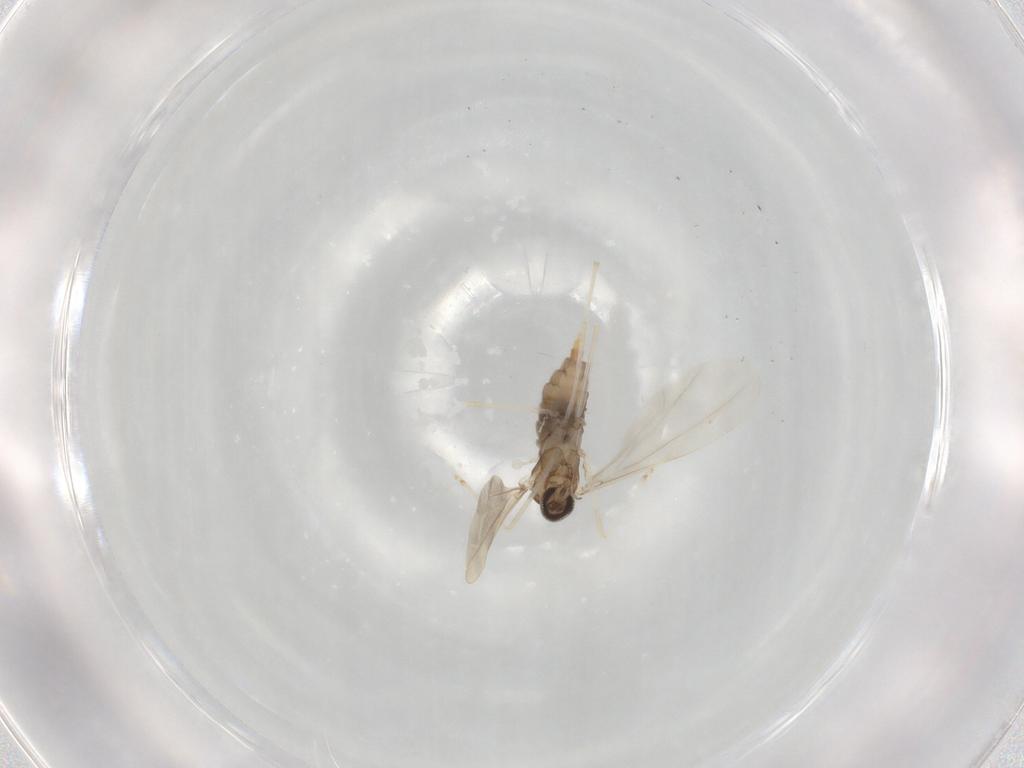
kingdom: Animalia
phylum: Arthropoda
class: Insecta
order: Diptera
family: Cecidomyiidae
